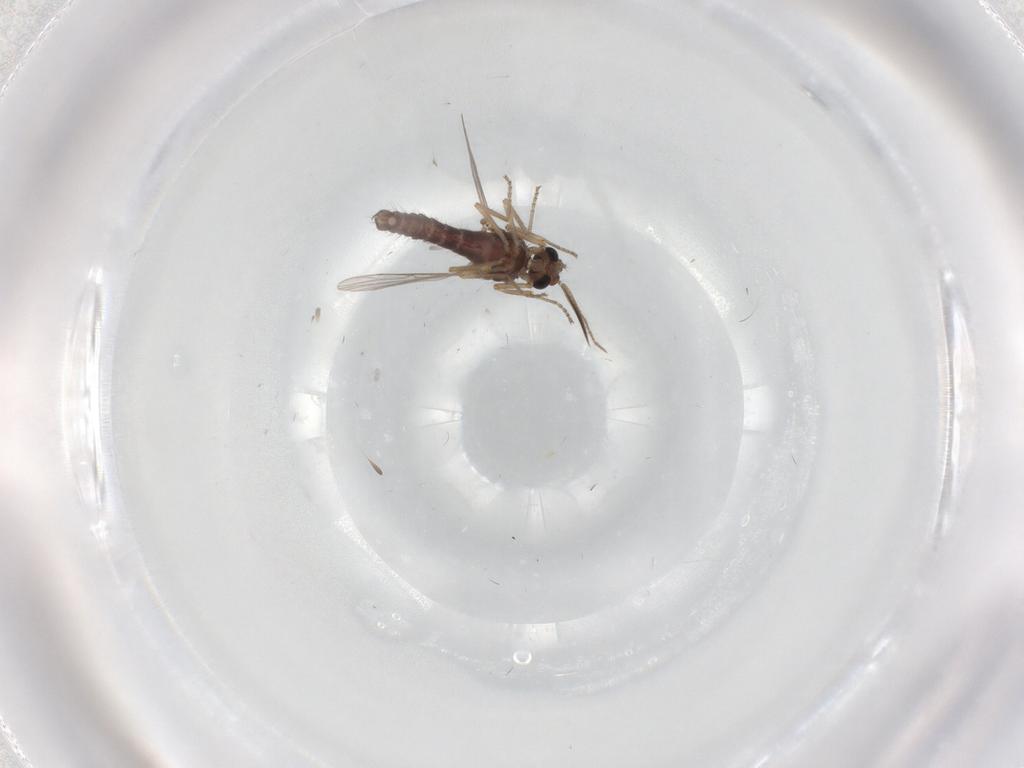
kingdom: Animalia
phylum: Arthropoda
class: Insecta
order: Diptera
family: Ceratopogonidae
